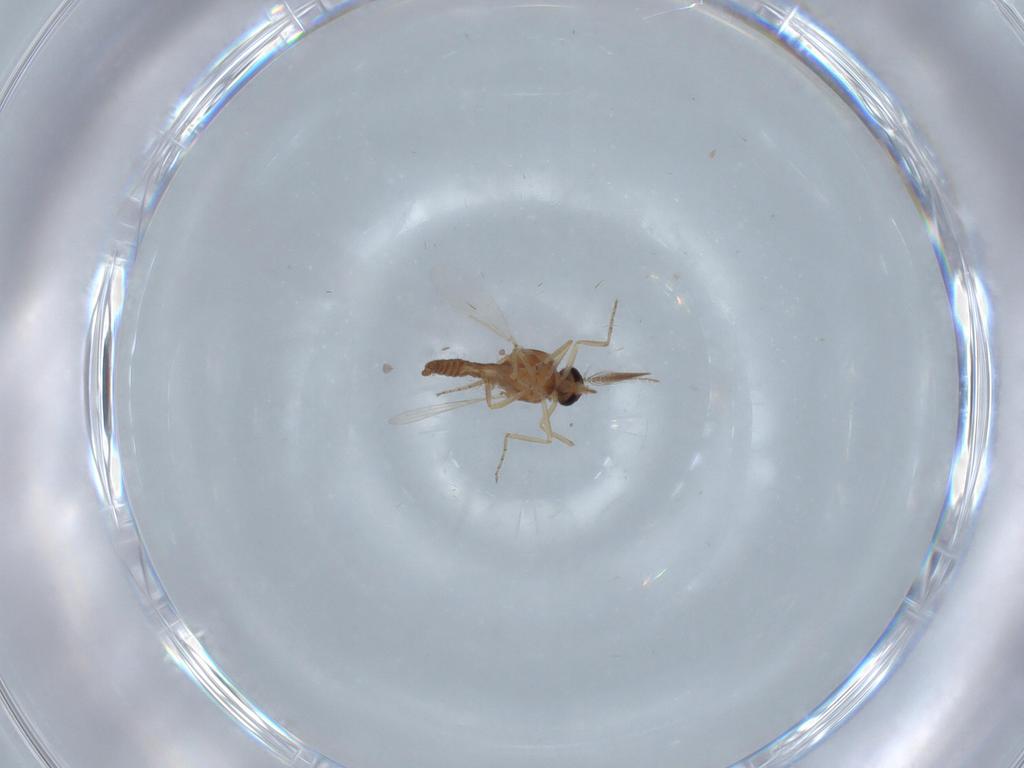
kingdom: Animalia
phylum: Arthropoda
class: Insecta
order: Diptera
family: Ceratopogonidae
